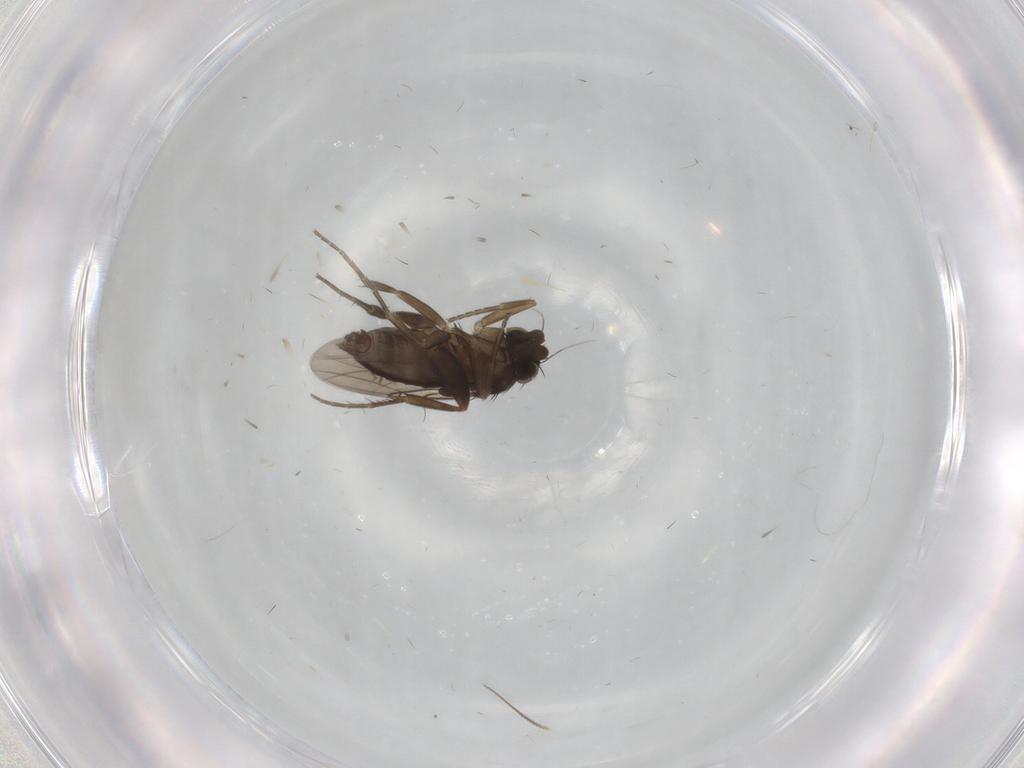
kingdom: Animalia
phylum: Arthropoda
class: Insecta
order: Diptera
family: Phoridae
